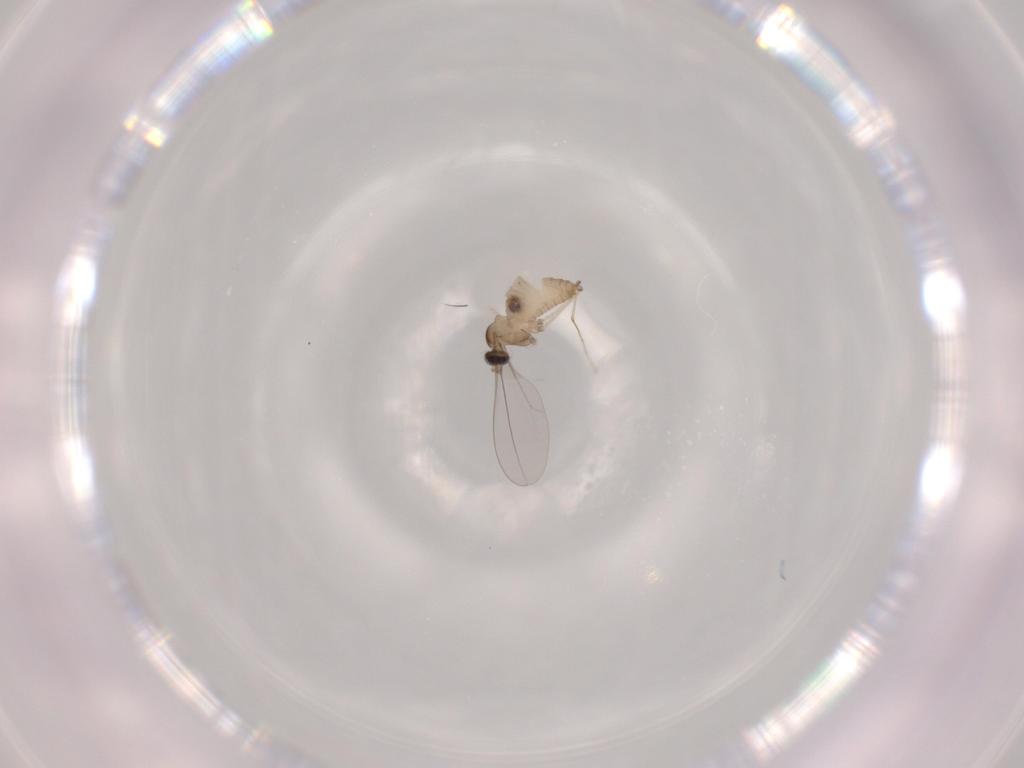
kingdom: Animalia
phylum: Arthropoda
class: Insecta
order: Diptera
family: Cecidomyiidae
